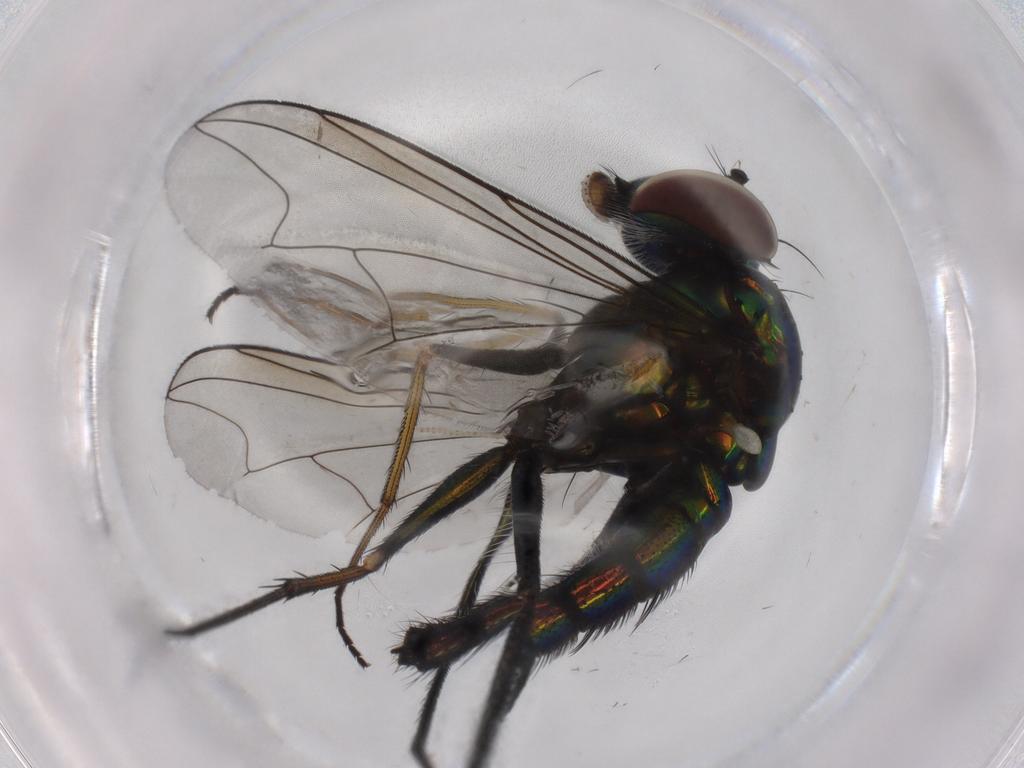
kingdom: Animalia
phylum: Arthropoda
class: Insecta
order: Diptera
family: Dolichopodidae
